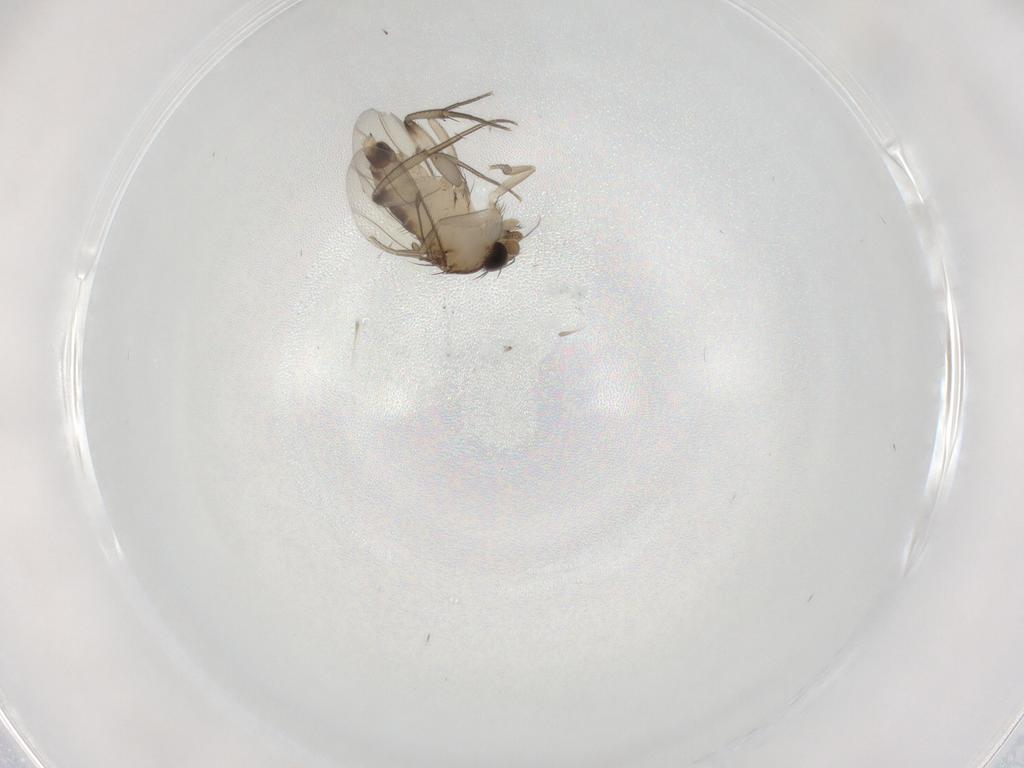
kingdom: Animalia
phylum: Arthropoda
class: Insecta
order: Diptera
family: Phoridae
